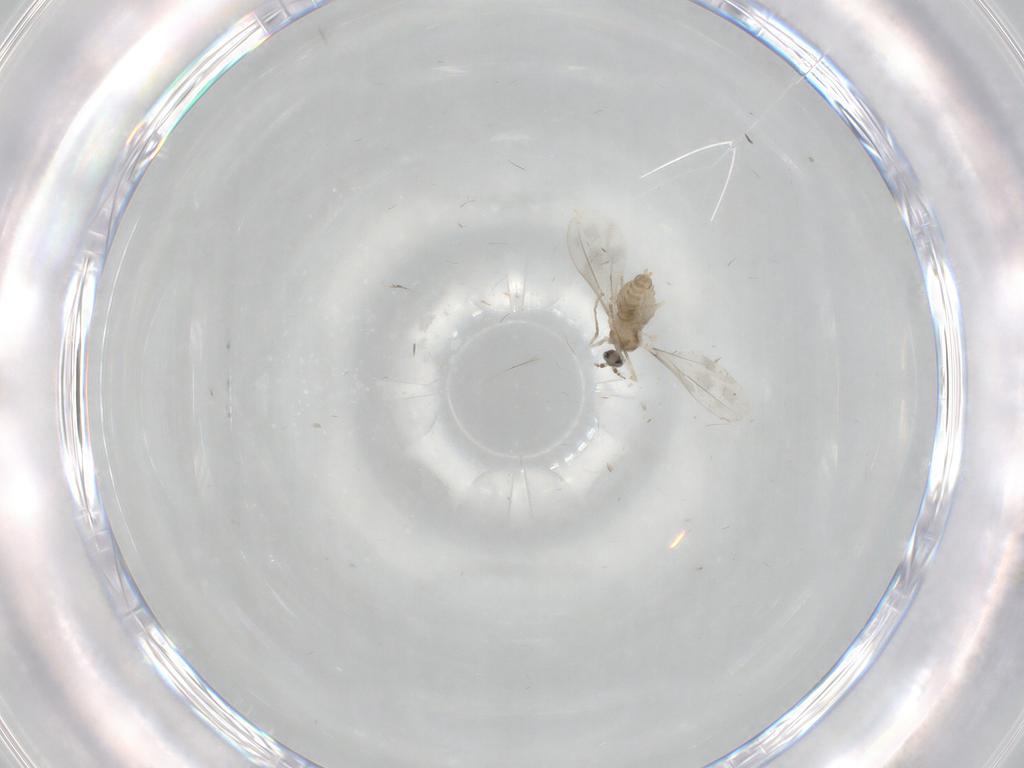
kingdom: Animalia
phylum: Arthropoda
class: Insecta
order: Diptera
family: Cecidomyiidae
